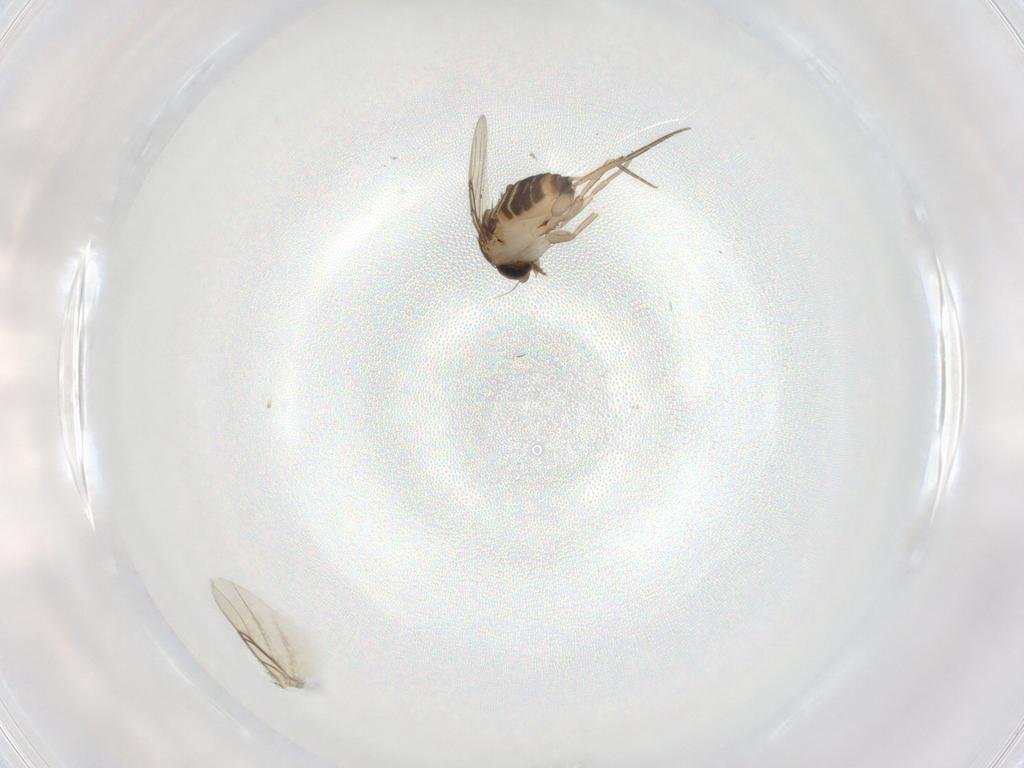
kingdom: Animalia
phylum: Arthropoda
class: Insecta
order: Diptera
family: Phoridae
